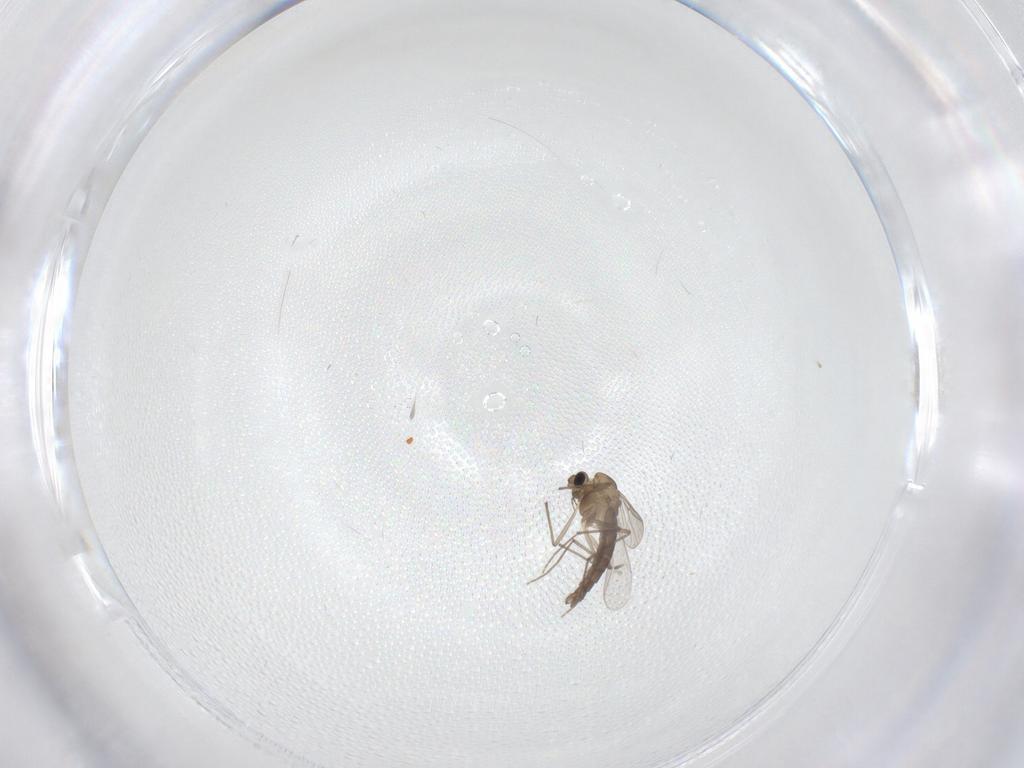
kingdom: Animalia
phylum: Arthropoda
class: Insecta
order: Diptera
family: Chironomidae
